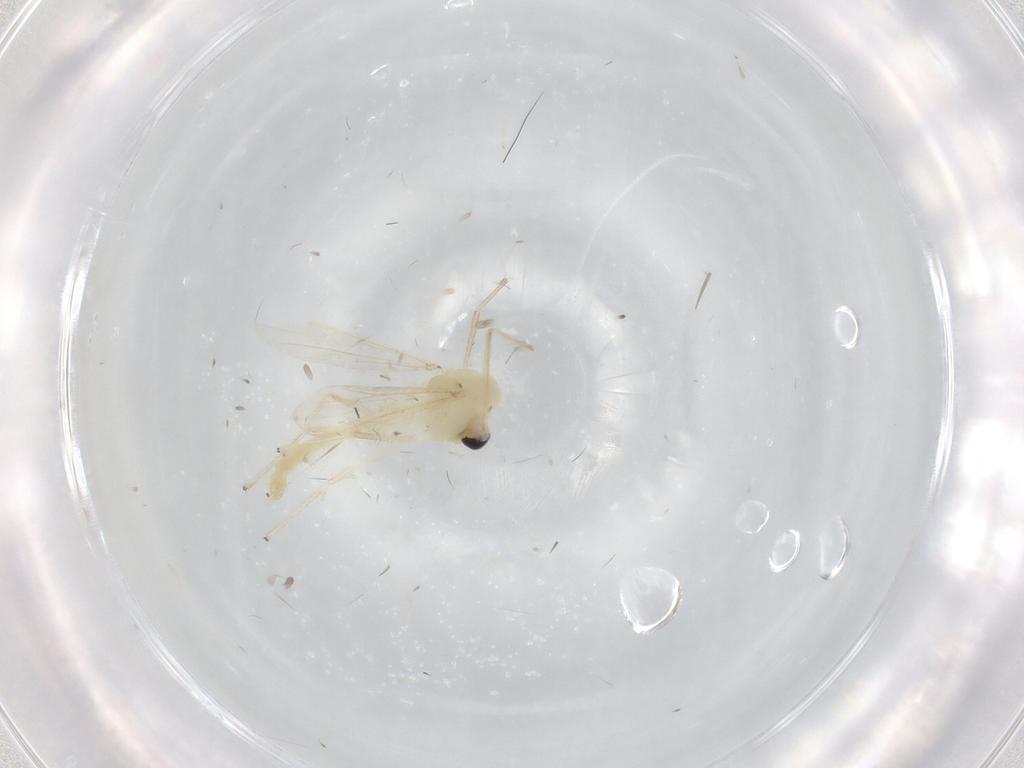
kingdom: Animalia
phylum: Arthropoda
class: Insecta
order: Diptera
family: Chironomidae
